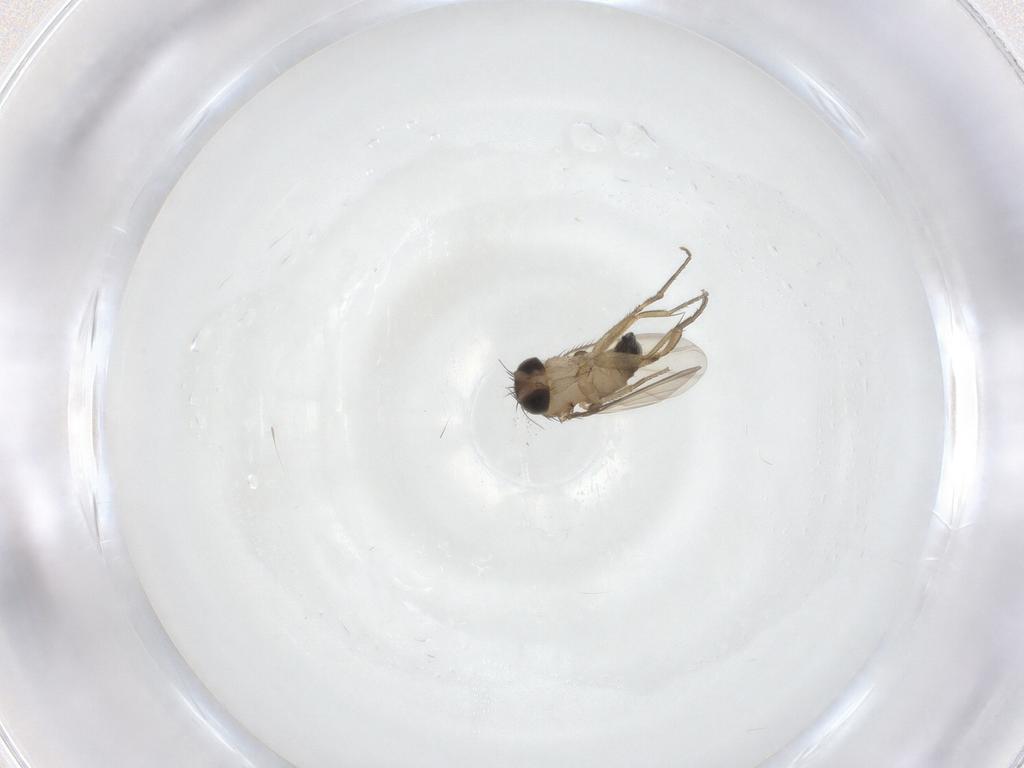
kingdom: Animalia
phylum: Arthropoda
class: Insecta
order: Diptera
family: Phoridae
